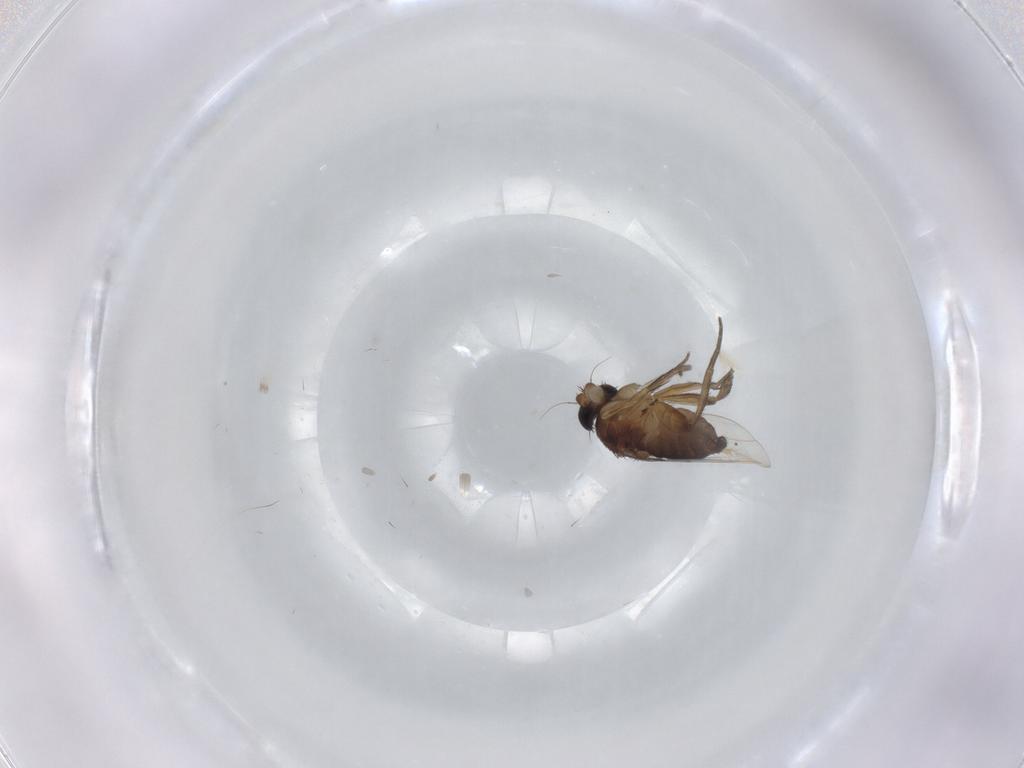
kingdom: Animalia
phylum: Arthropoda
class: Insecta
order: Diptera
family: Phoridae
